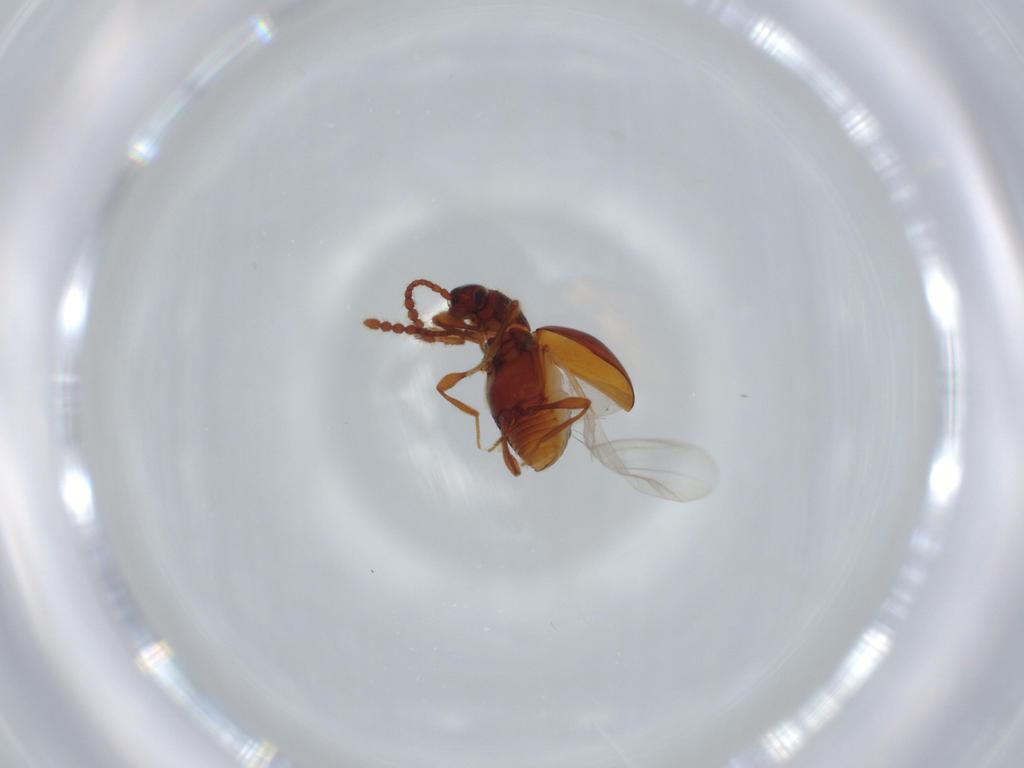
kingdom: Animalia
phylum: Arthropoda
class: Insecta
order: Coleoptera
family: Staphylinidae
